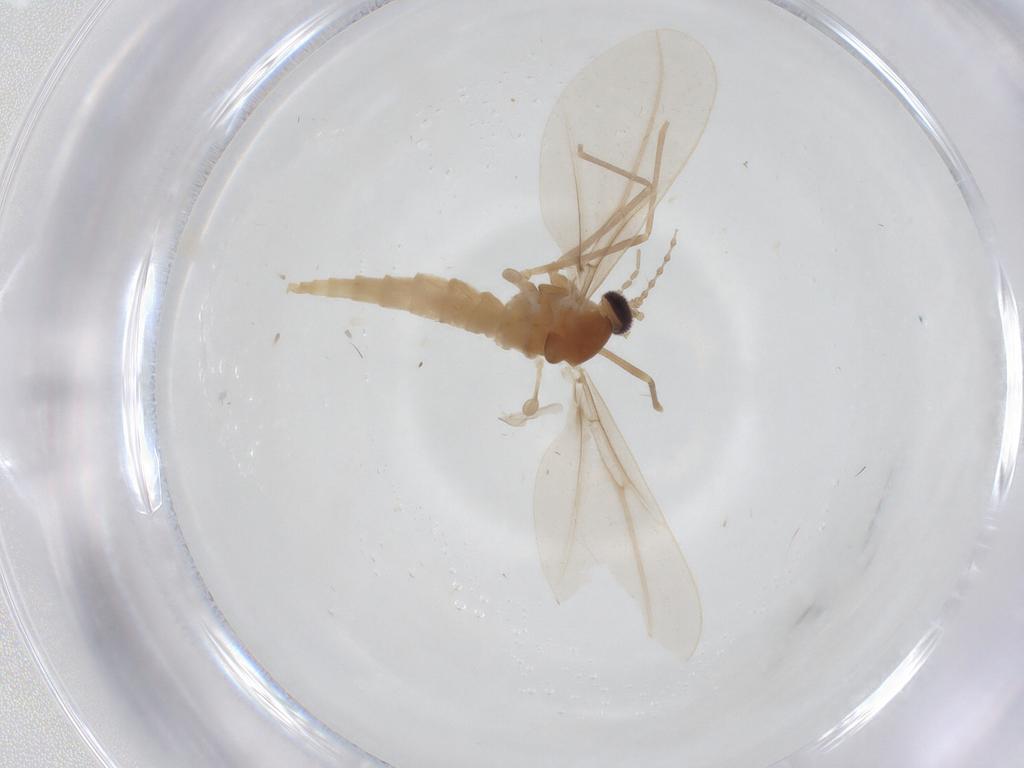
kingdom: Animalia
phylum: Arthropoda
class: Insecta
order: Diptera
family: Cecidomyiidae
